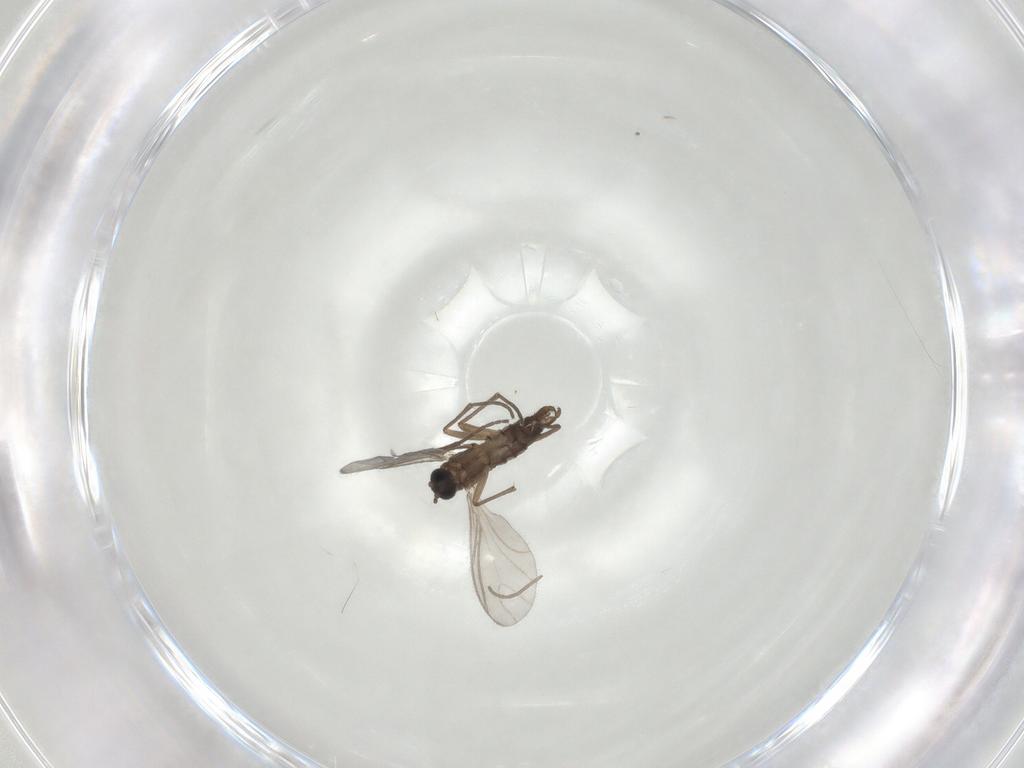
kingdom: Animalia
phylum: Arthropoda
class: Insecta
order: Diptera
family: Sciaridae
